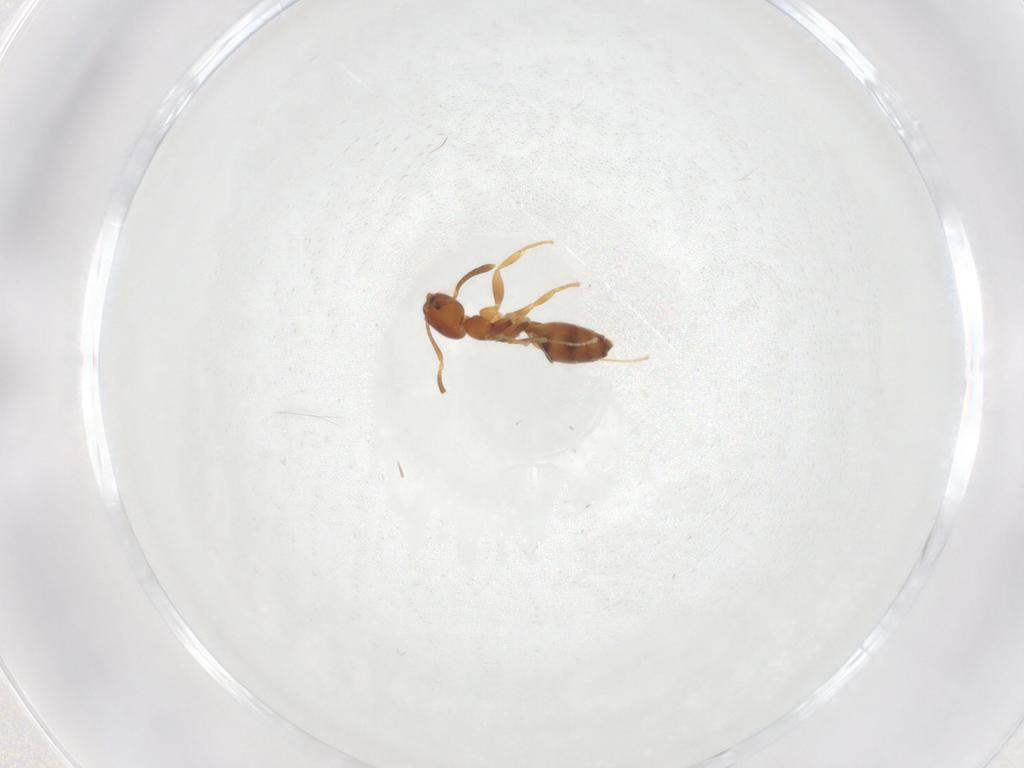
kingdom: Animalia
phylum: Arthropoda
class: Insecta
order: Hymenoptera
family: Formicidae
